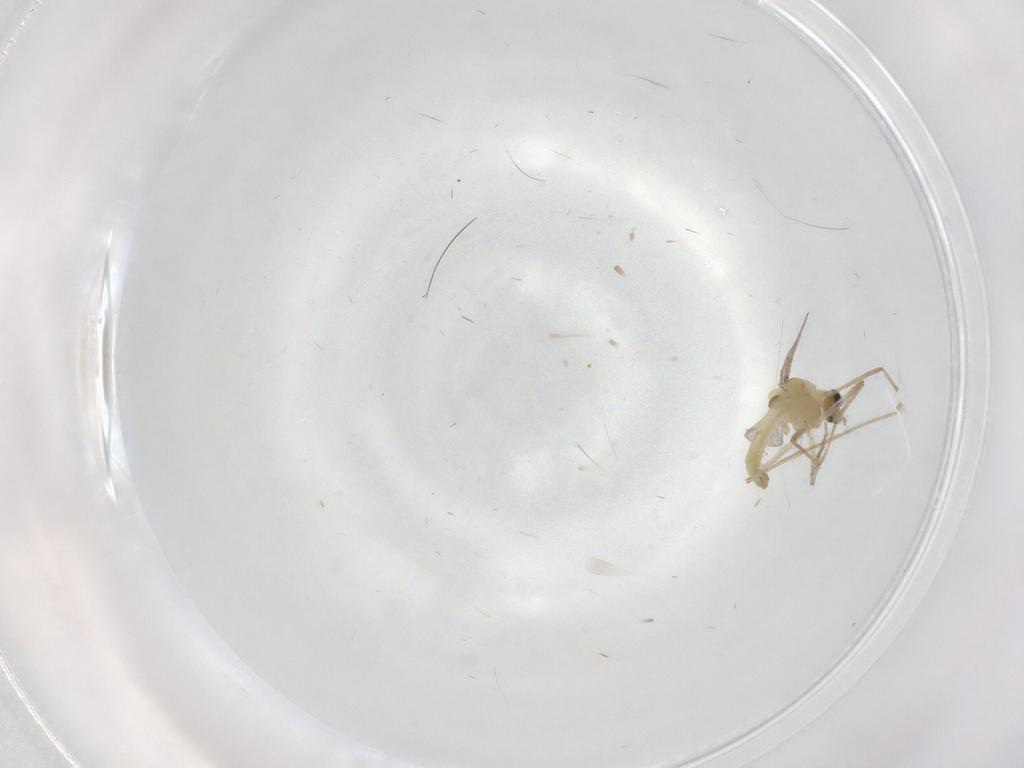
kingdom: Animalia
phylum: Arthropoda
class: Insecta
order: Diptera
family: Chironomidae
